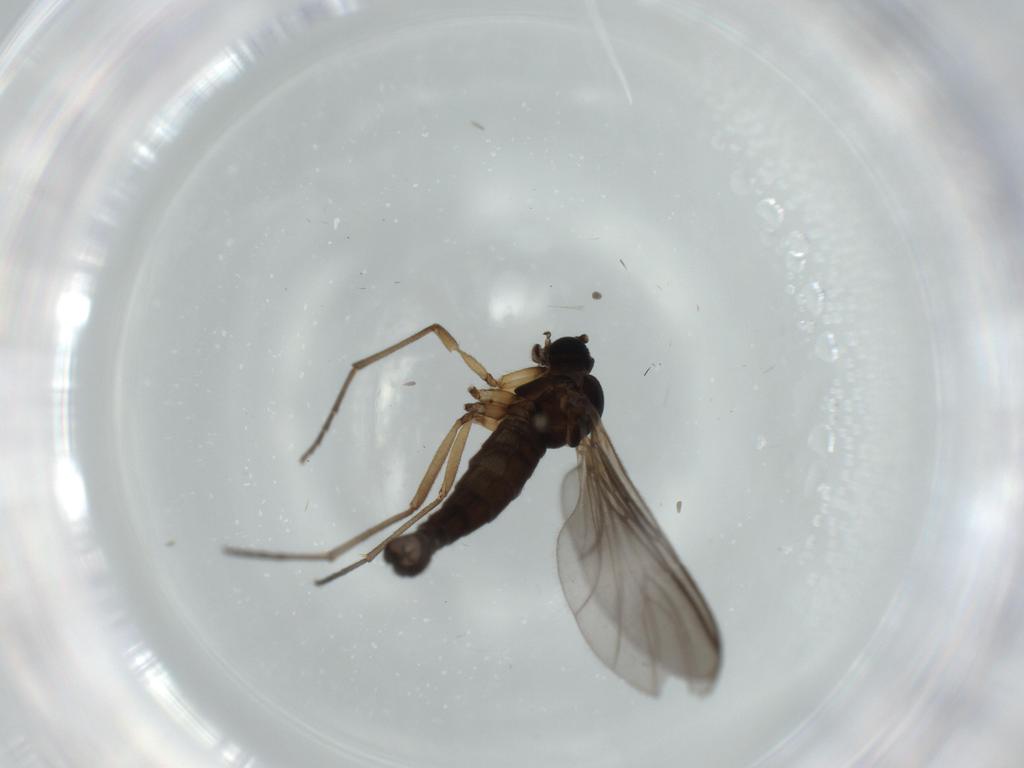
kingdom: Animalia
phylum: Arthropoda
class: Insecta
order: Diptera
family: Sciaridae
